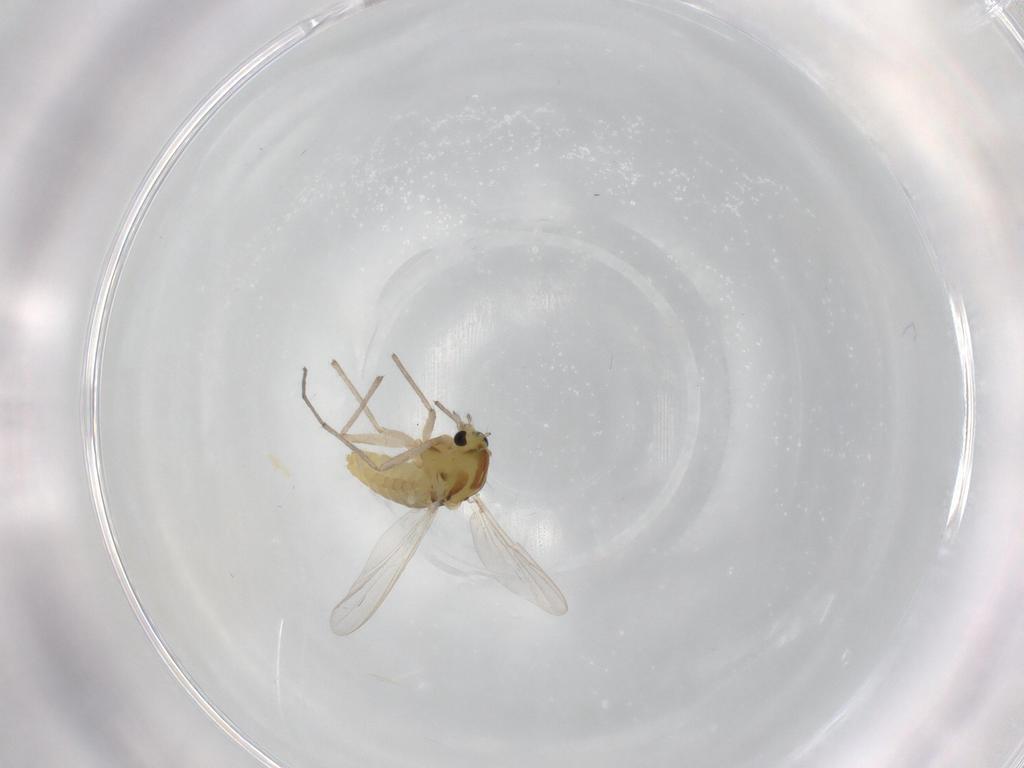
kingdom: Animalia
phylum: Arthropoda
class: Insecta
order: Diptera
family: Chironomidae
